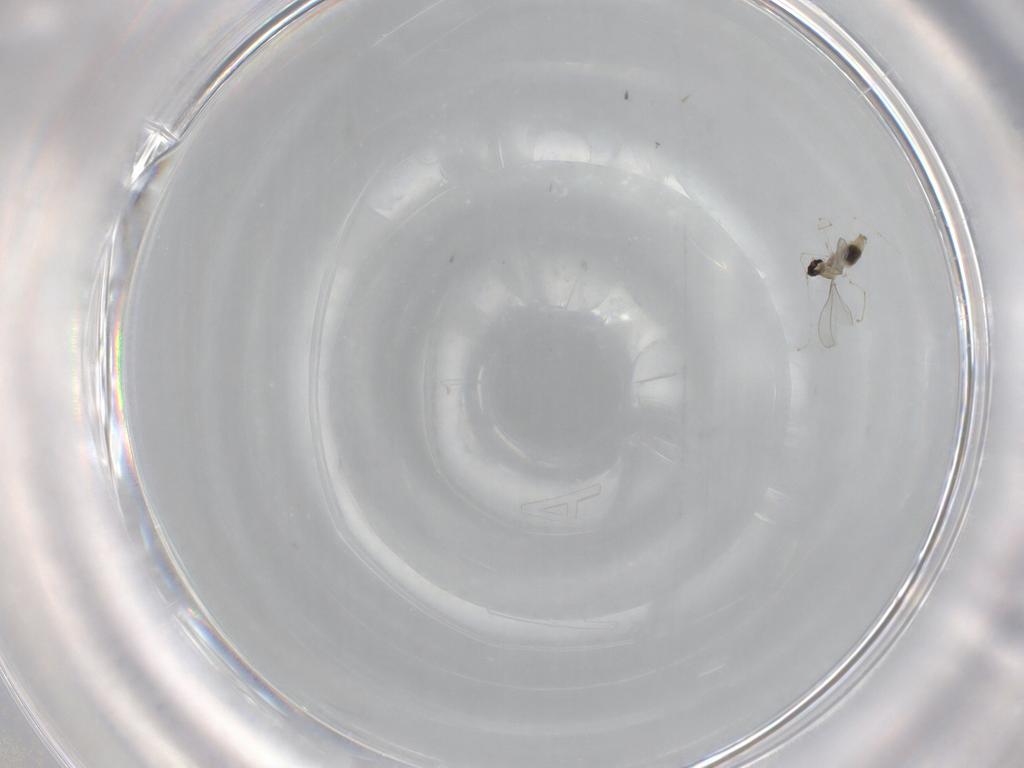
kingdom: Animalia
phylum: Arthropoda
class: Insecta
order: Diptera
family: Cecidomyiidae
